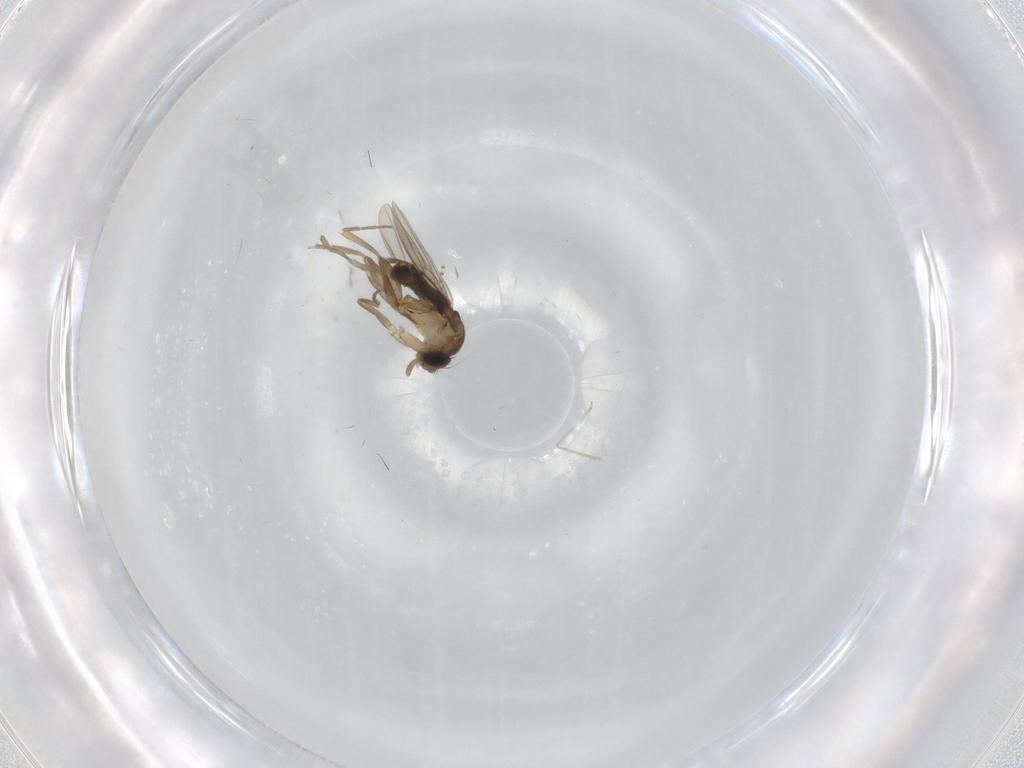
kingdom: Animalia
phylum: Arthropoda
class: Insecta
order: Diptera
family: Phoridae
